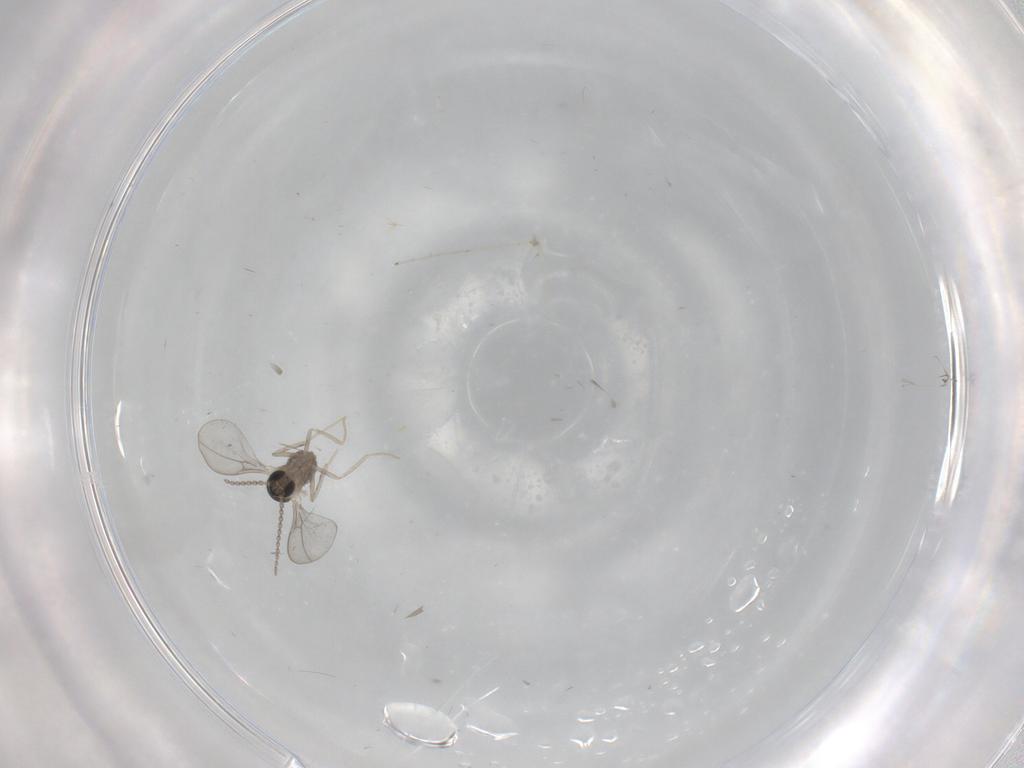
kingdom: Animalia
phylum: Arthropoda
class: Insecta
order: Diptera
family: Cecidomyiidae
